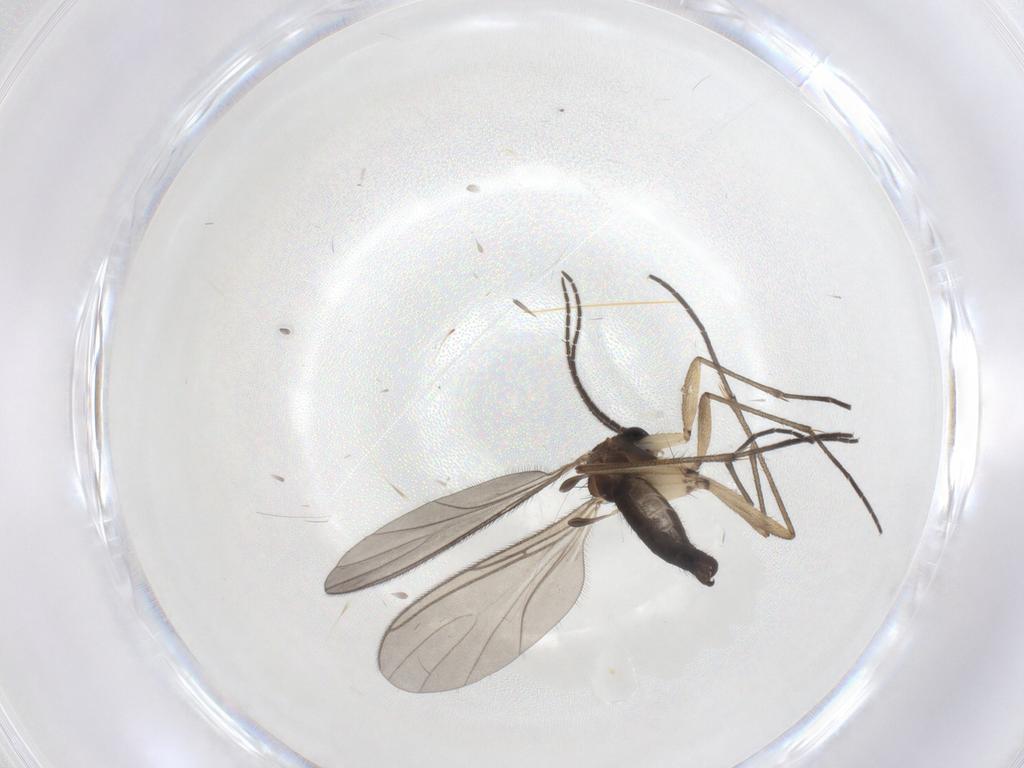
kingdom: Animalia
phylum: Arthropoda
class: Insecta
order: Diptera
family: Sciaridae
